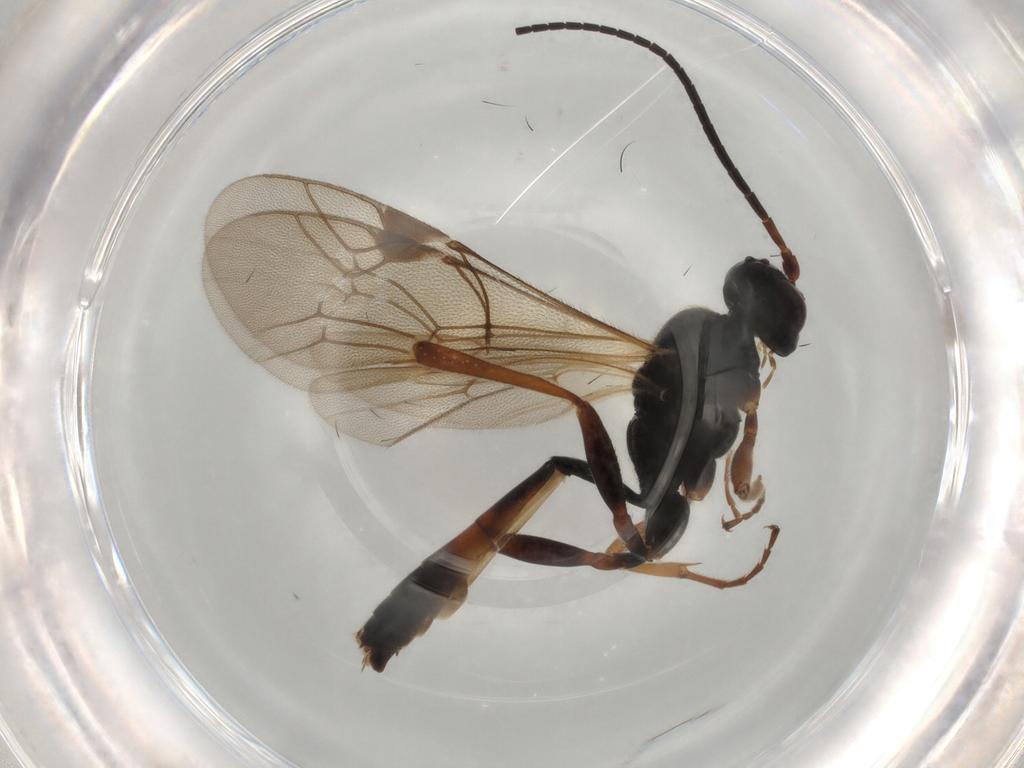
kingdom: Animalia
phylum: Arthropoda
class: Insecta
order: Hymenoptera
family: Ichneumonidae
